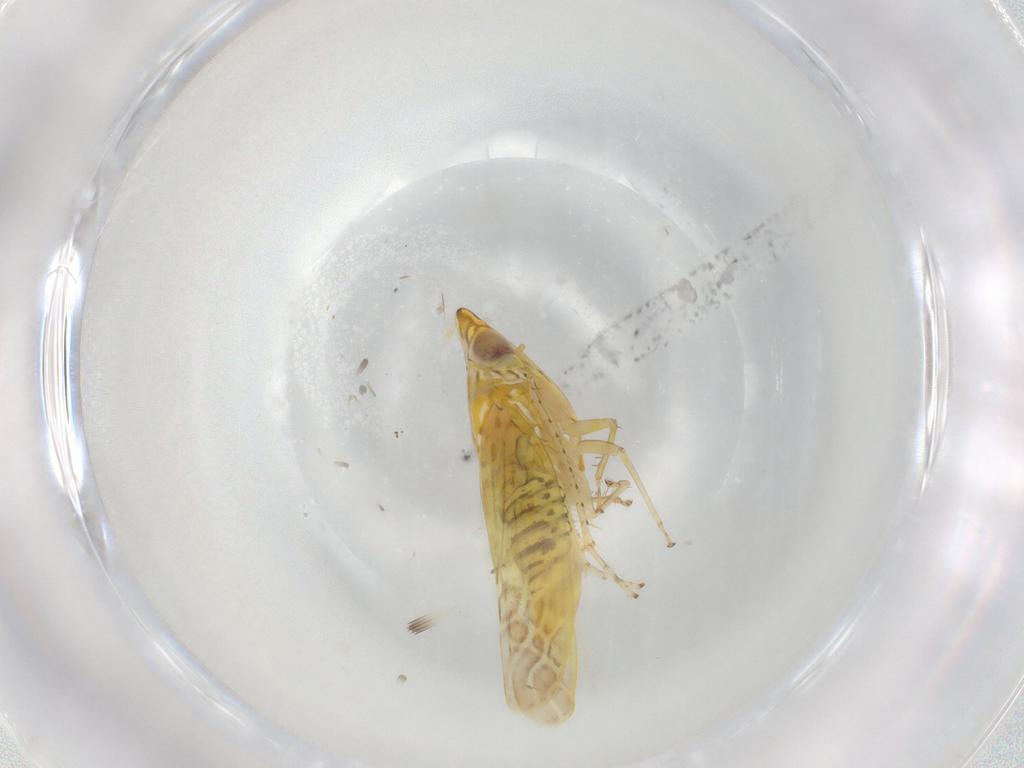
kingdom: Animalia
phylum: Arthropoda
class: Insecta
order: Hemiptera
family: Cicadellidae
